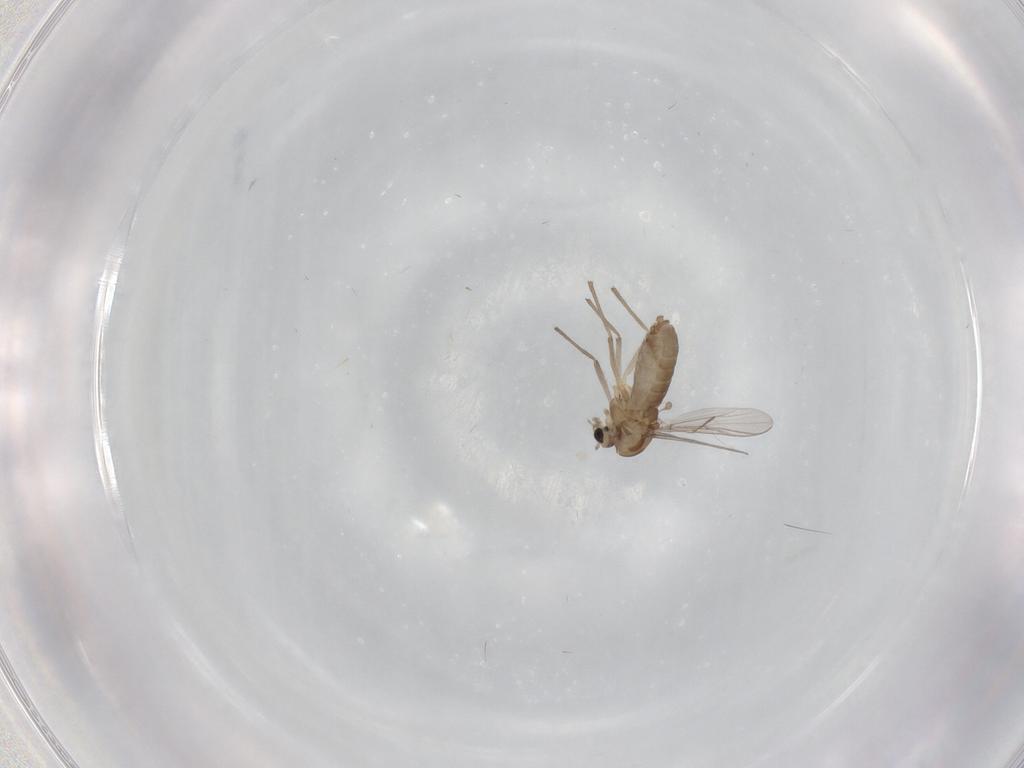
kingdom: Animalia
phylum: Arthropoda
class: Insecta
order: Diptera
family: Chironomidae
